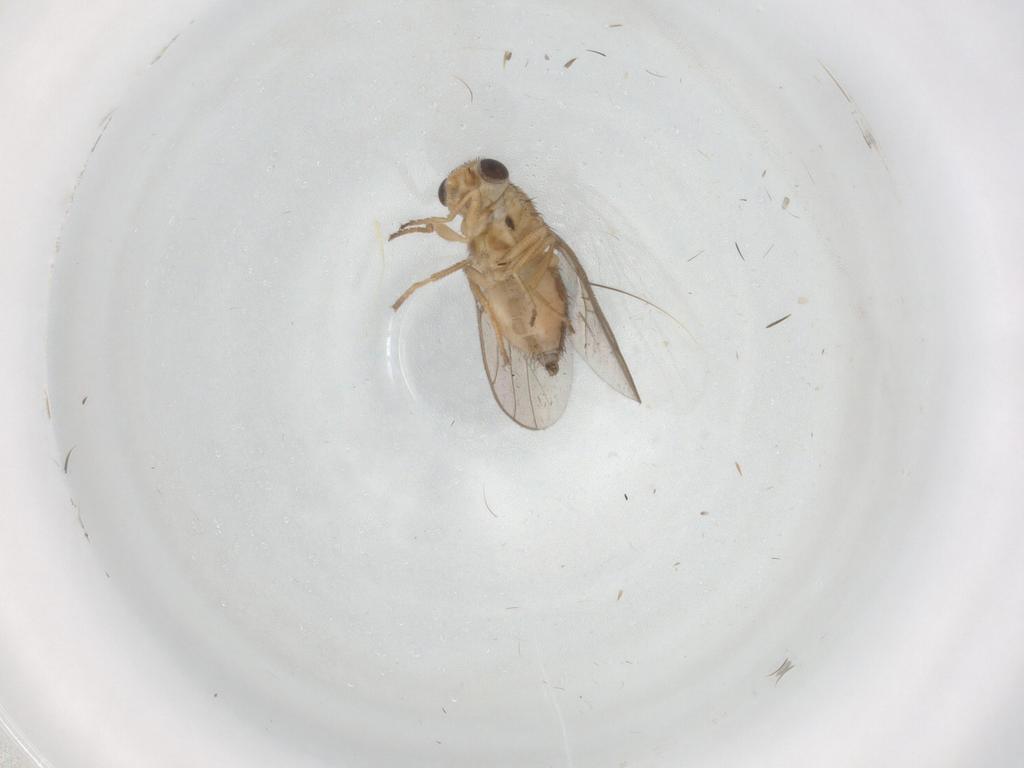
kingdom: Animalia
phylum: Arthropoda
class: Insecta
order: Diptera
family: Chloropidae
